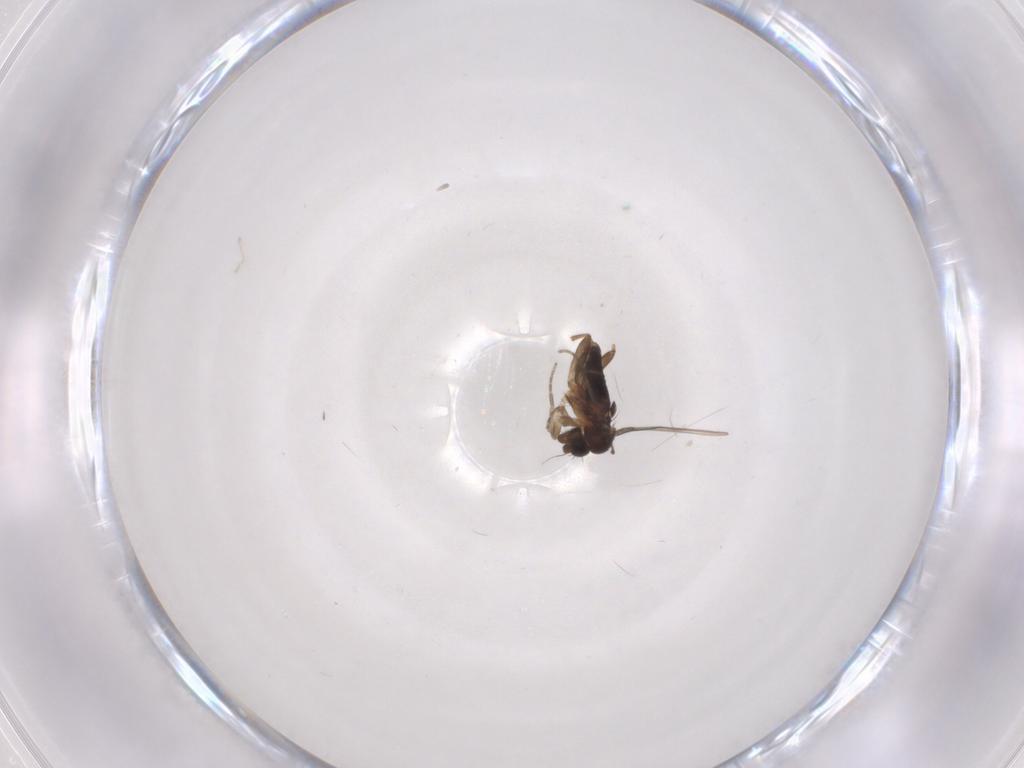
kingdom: Animalia
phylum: Arthropoda
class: Insecta
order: Diptera
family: Phoridae
